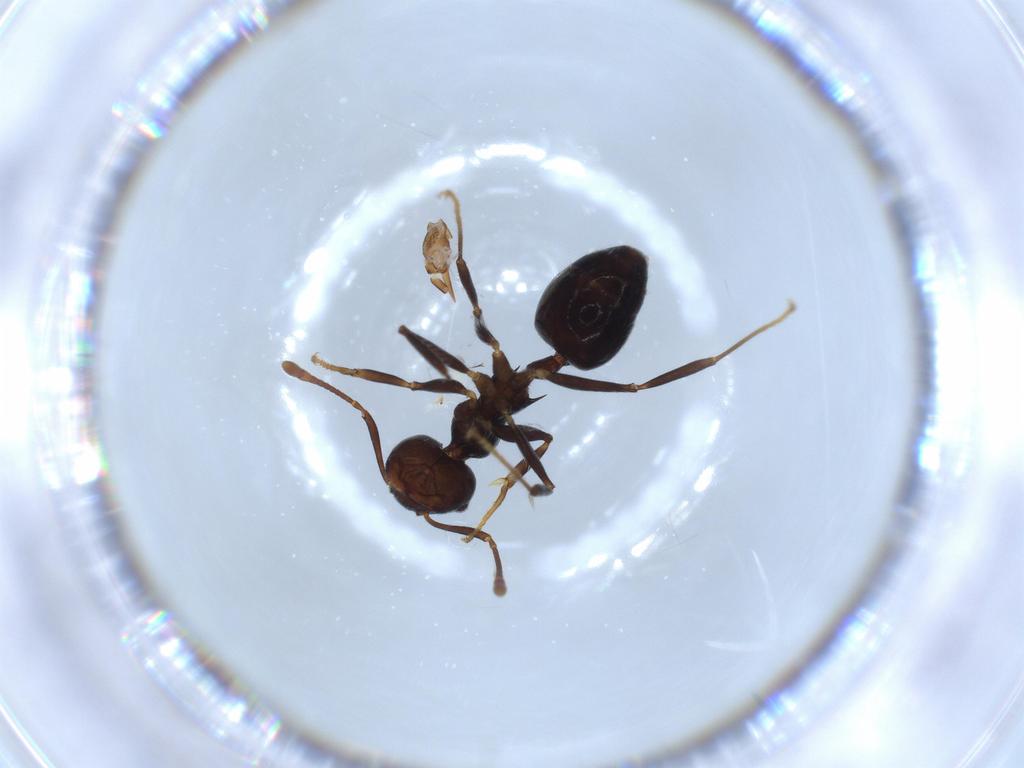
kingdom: Animalia
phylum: Arthropoda
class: Insecta
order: Hymenoptera
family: Formicidae
